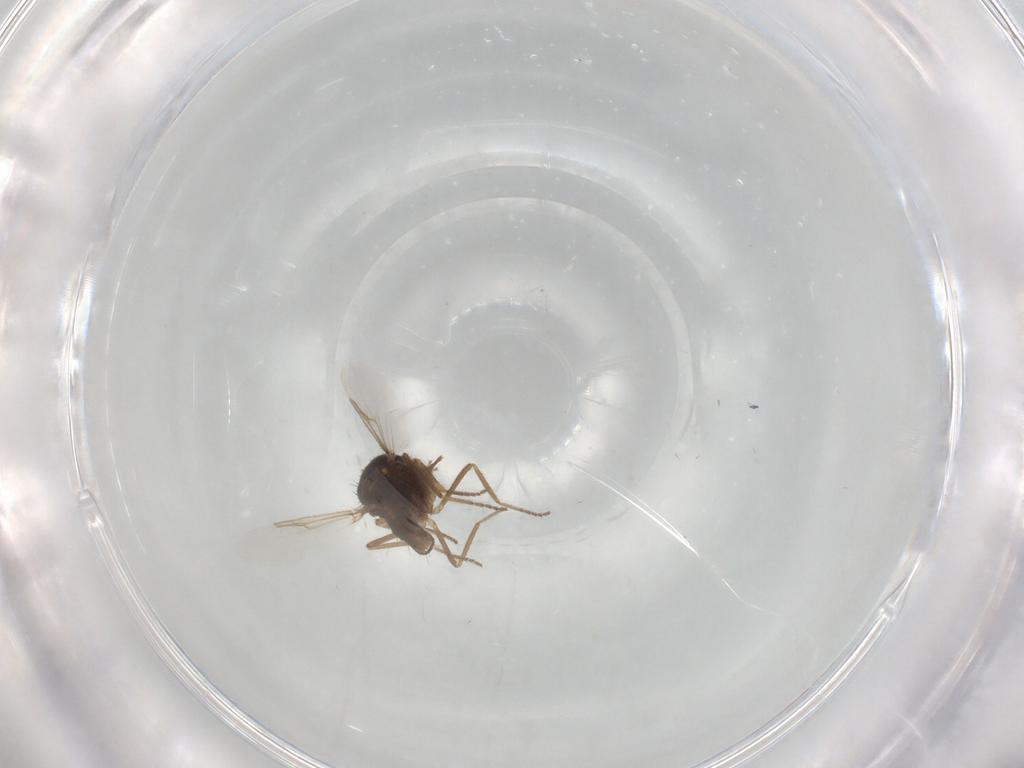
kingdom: Animalia
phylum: Arthropoda
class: Insecta
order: Diptera
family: Ceratopogonidae
